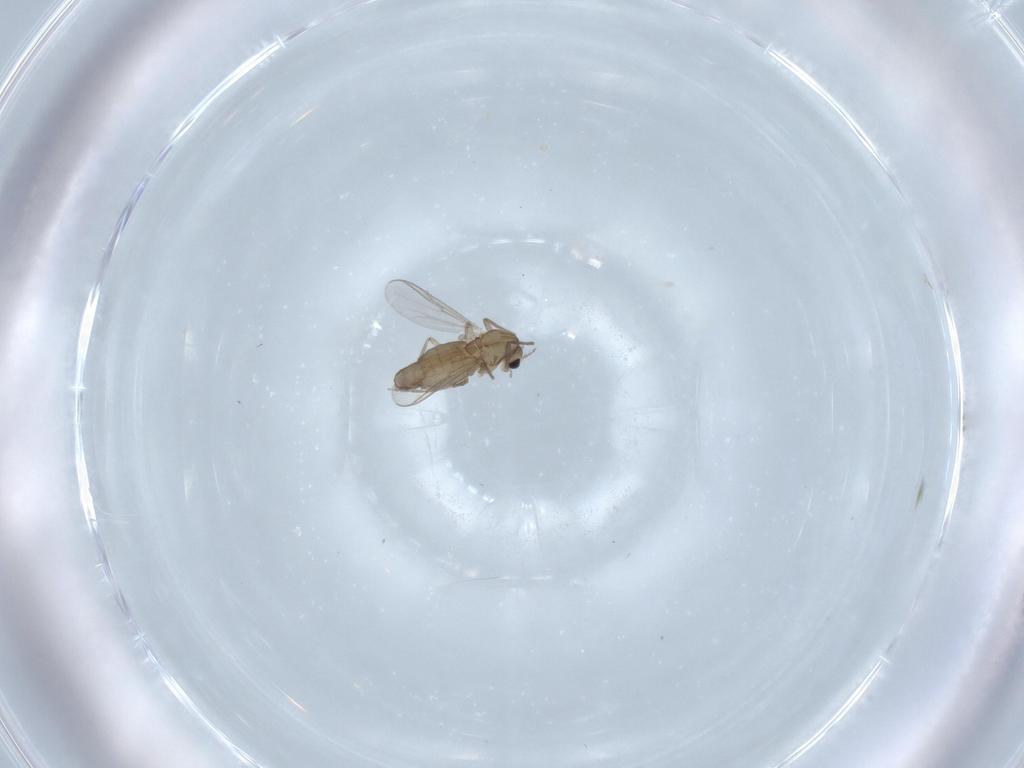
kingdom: Animalia
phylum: Arthropoda
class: Insecta
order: Diptera
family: Chironomidae
